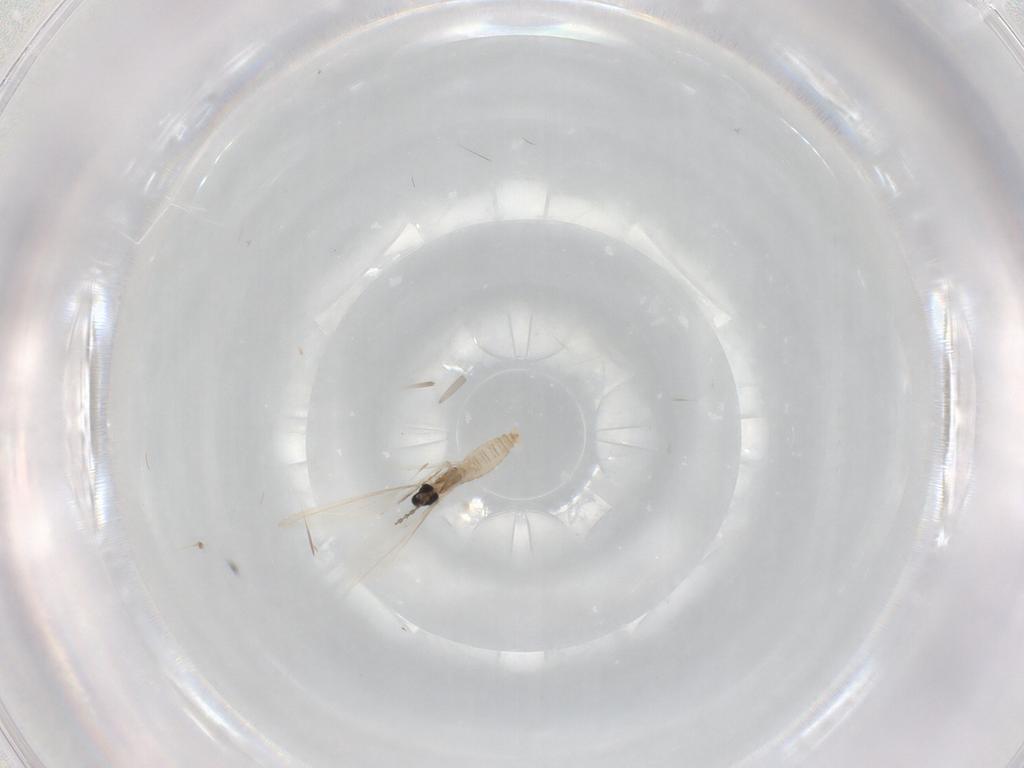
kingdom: Animalia
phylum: Arthropoda
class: Insecta
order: Diptera
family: Cecidomyiidae
